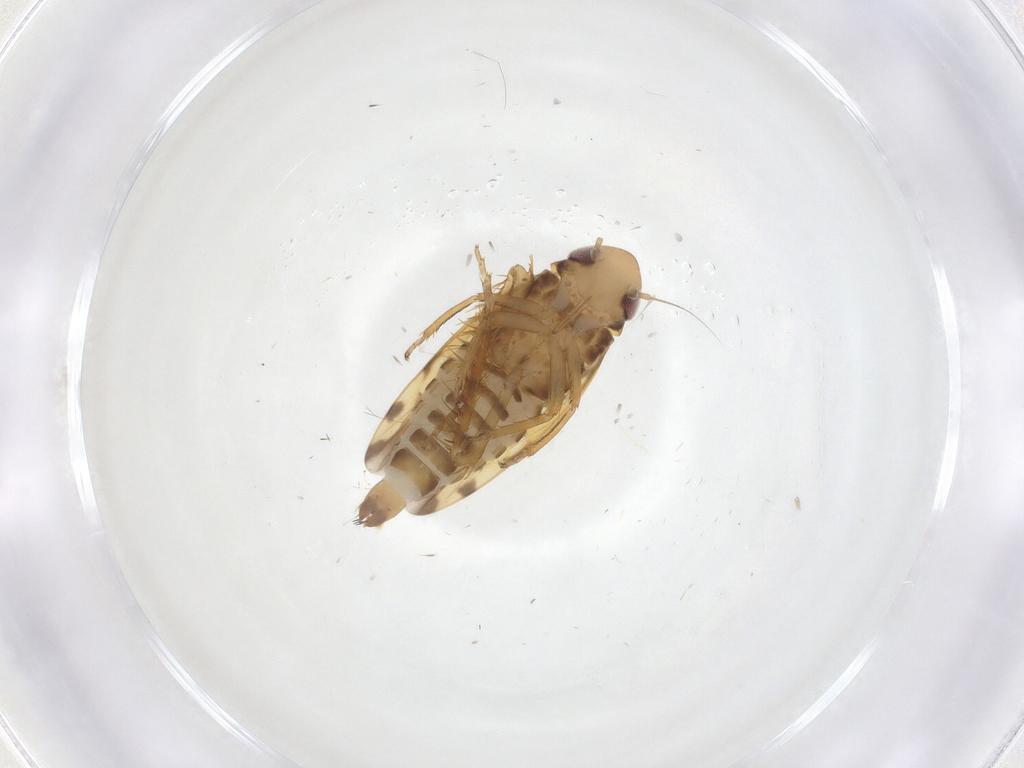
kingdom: Animalia
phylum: Arthropoda
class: Insecta
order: Hemiptera
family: Cicadellidae
